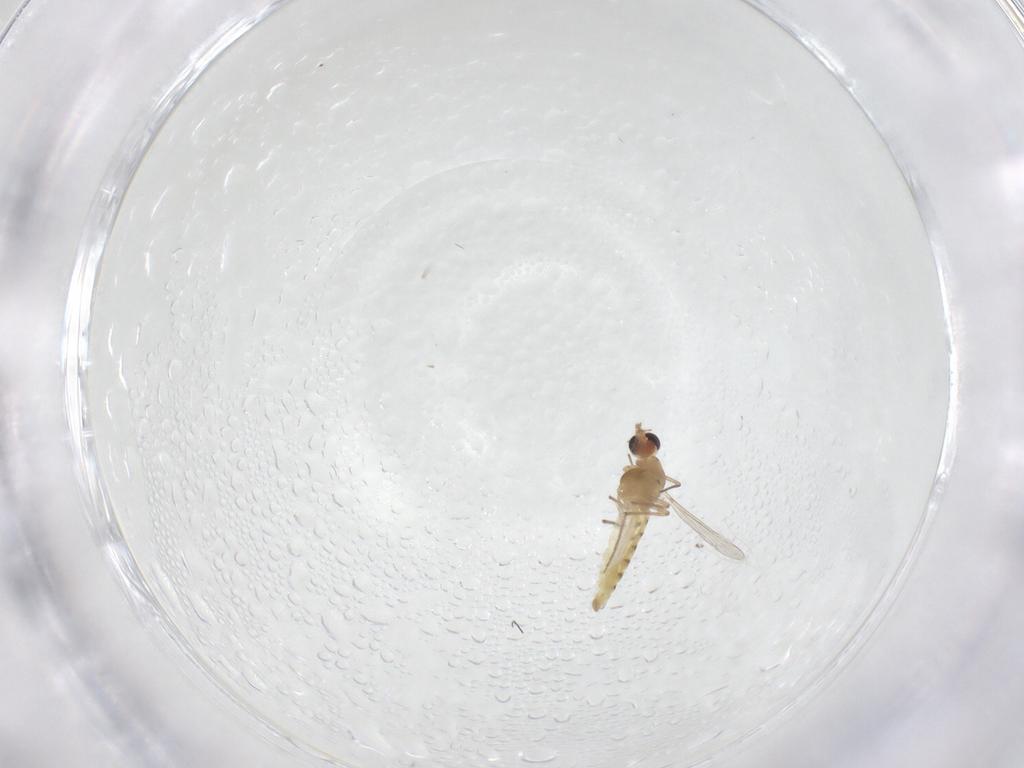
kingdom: Animalia
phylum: Arthropoda
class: Insecta
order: Diptera
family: Chironomidae
